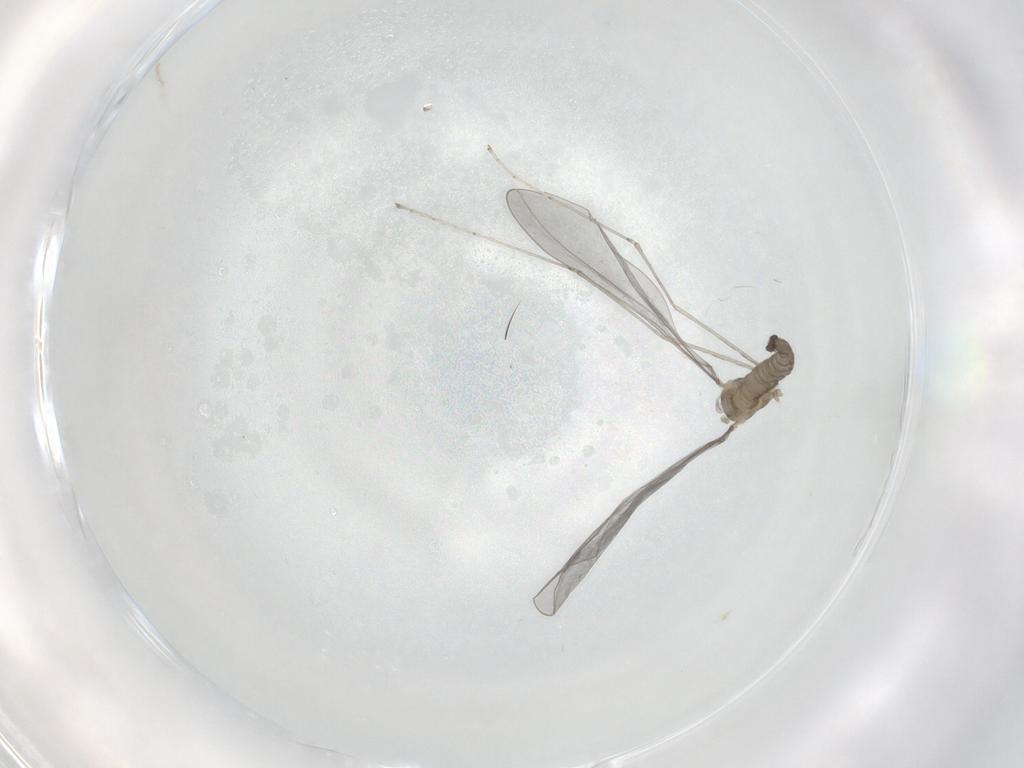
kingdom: Animalia
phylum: Arthropoda
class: Insecta
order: Diptera
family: Cecidomyiidae
